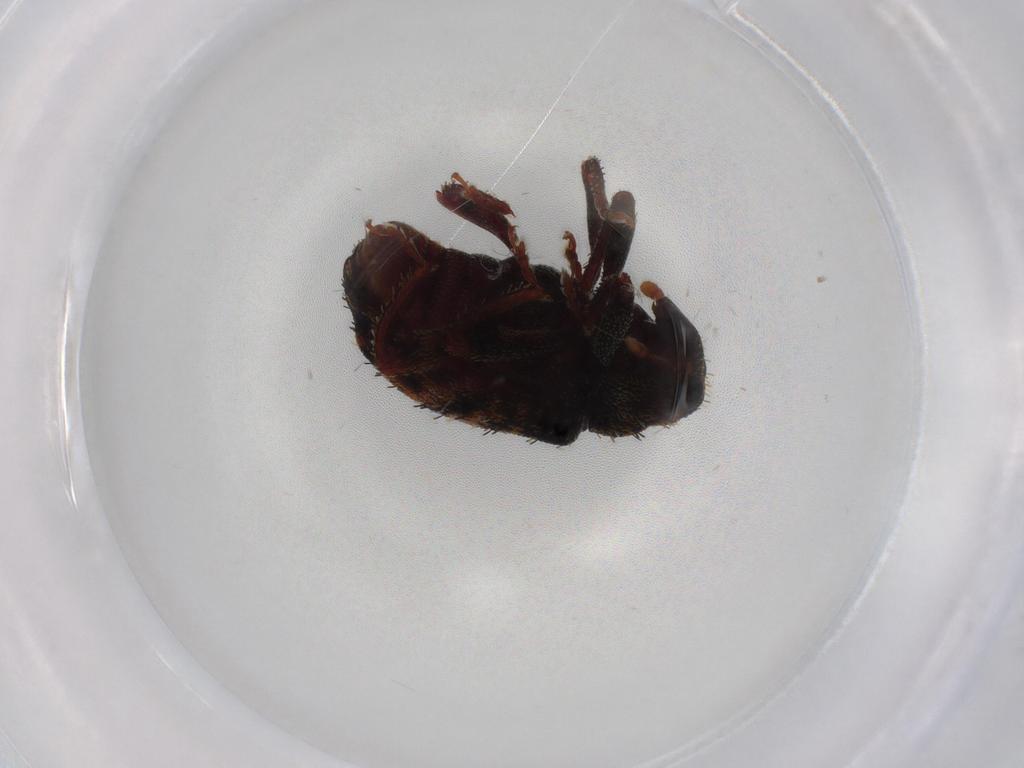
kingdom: Animalia
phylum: Arthropoda
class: Insecta
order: Coleoptera
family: Curculionidae
